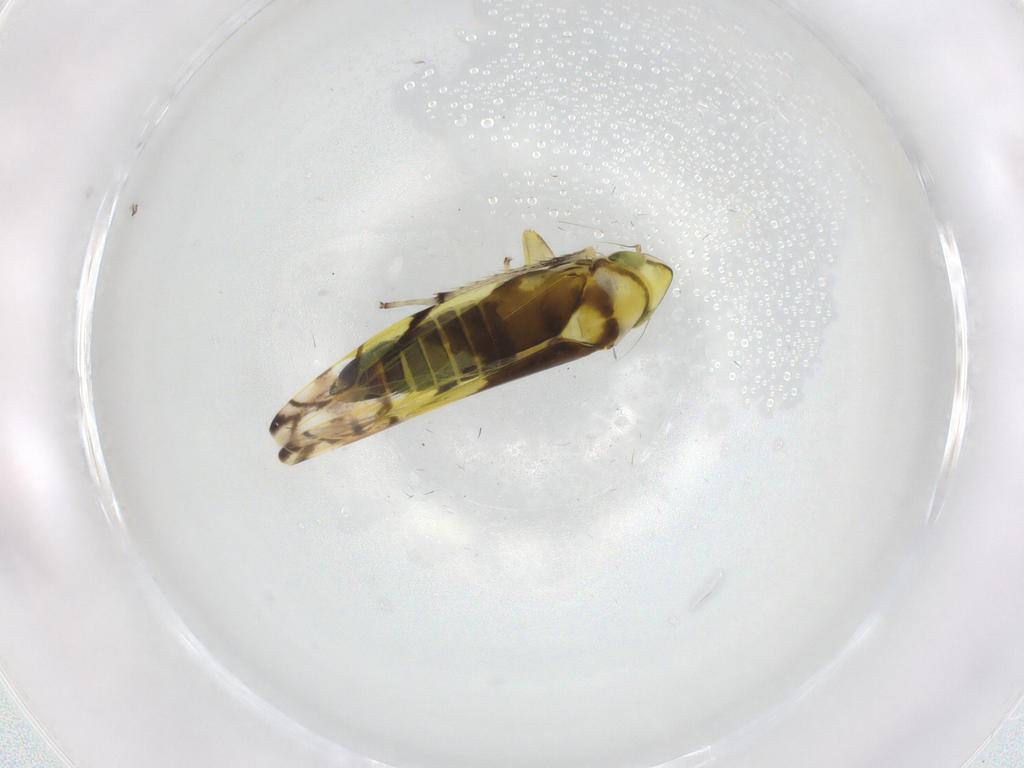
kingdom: Animalia
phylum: Arthropoda
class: Insecta
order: Hemiptera
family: Cicadellidae
